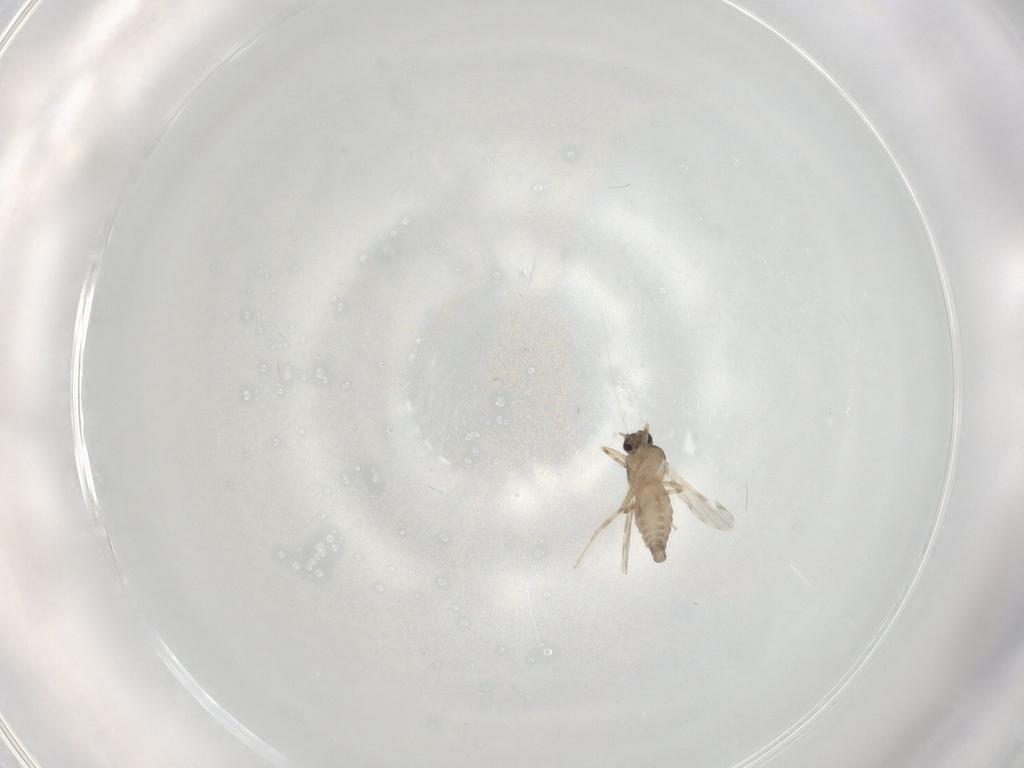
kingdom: Animalia
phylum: Arthropoda
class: Insecta
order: Diptera
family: Ceratopogonidae
